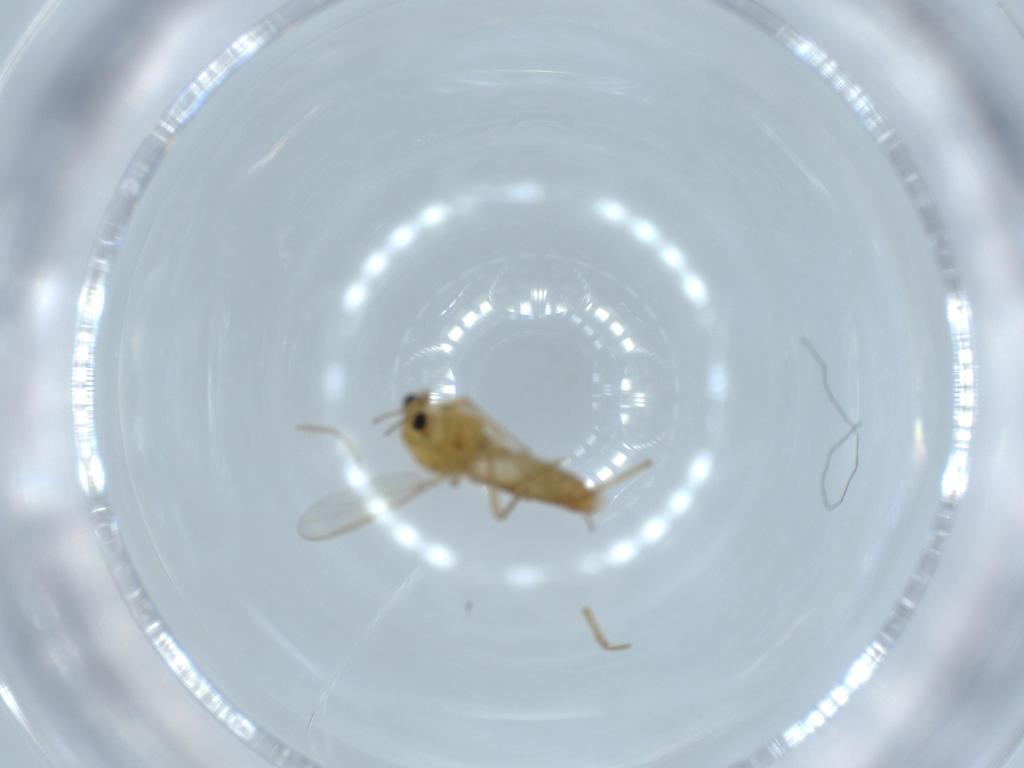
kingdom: Animalia
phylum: Arthropoda
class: Insecta
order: Diptera
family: Chironomidae
